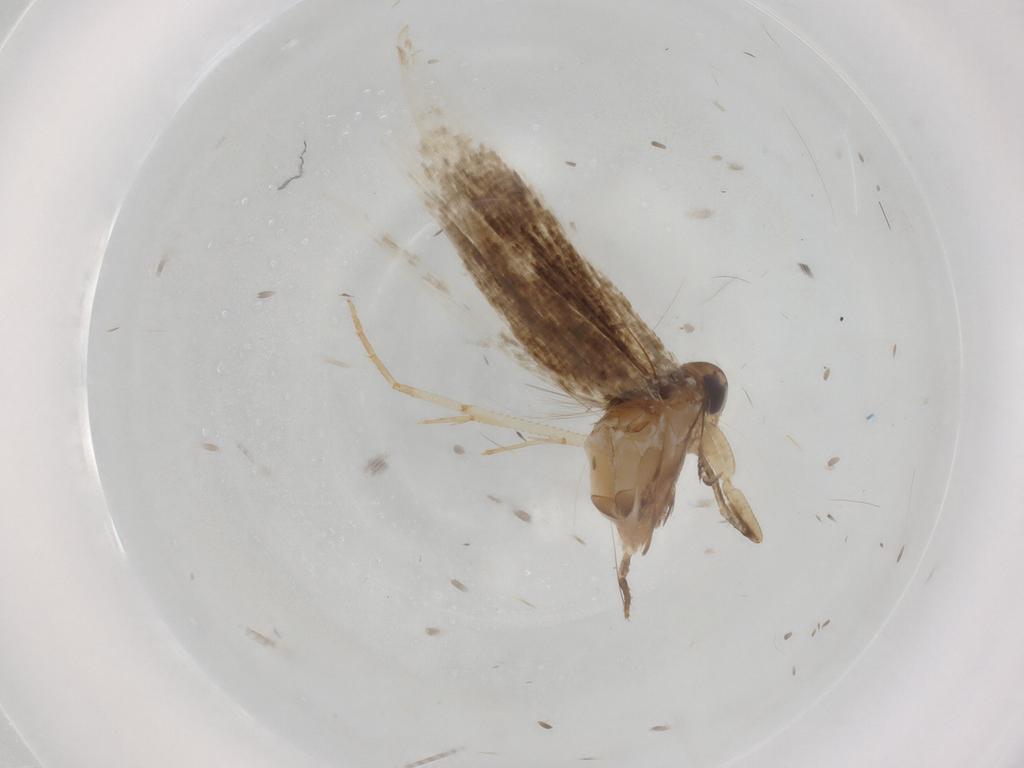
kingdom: Animalia
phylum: Arthropoda
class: Insecta
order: Lepidoptera
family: Cosmopterigidae
